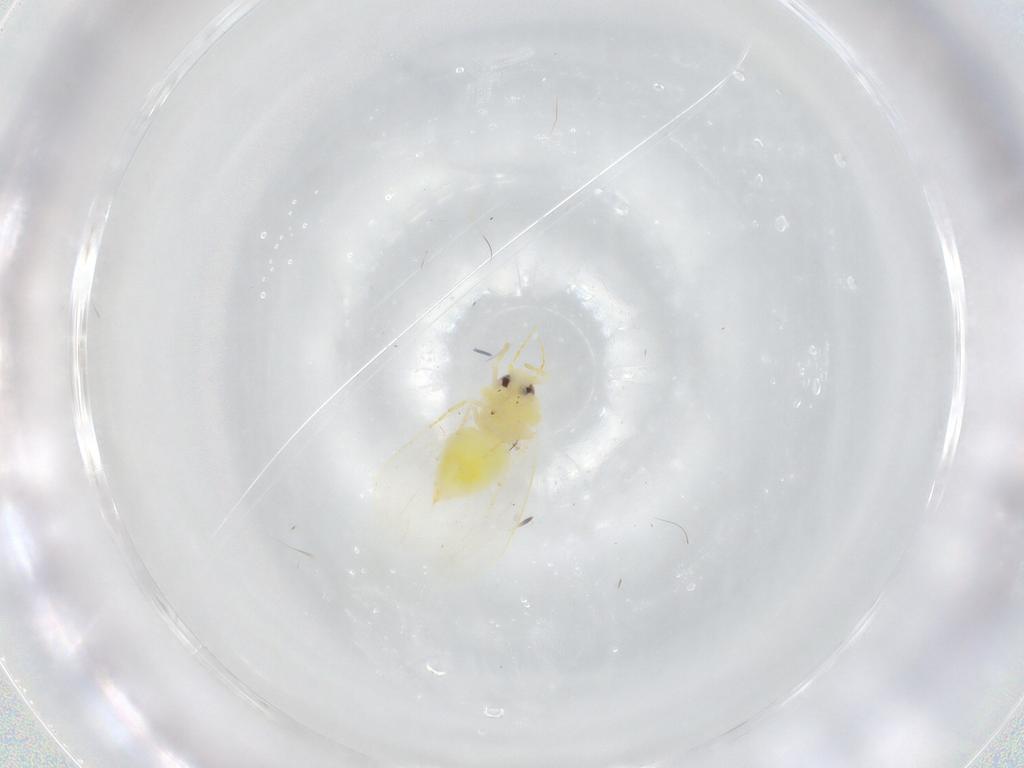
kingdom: Animalia
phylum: Arthropoda
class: Insecta
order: Hemiptera
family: Aleyrodidae
